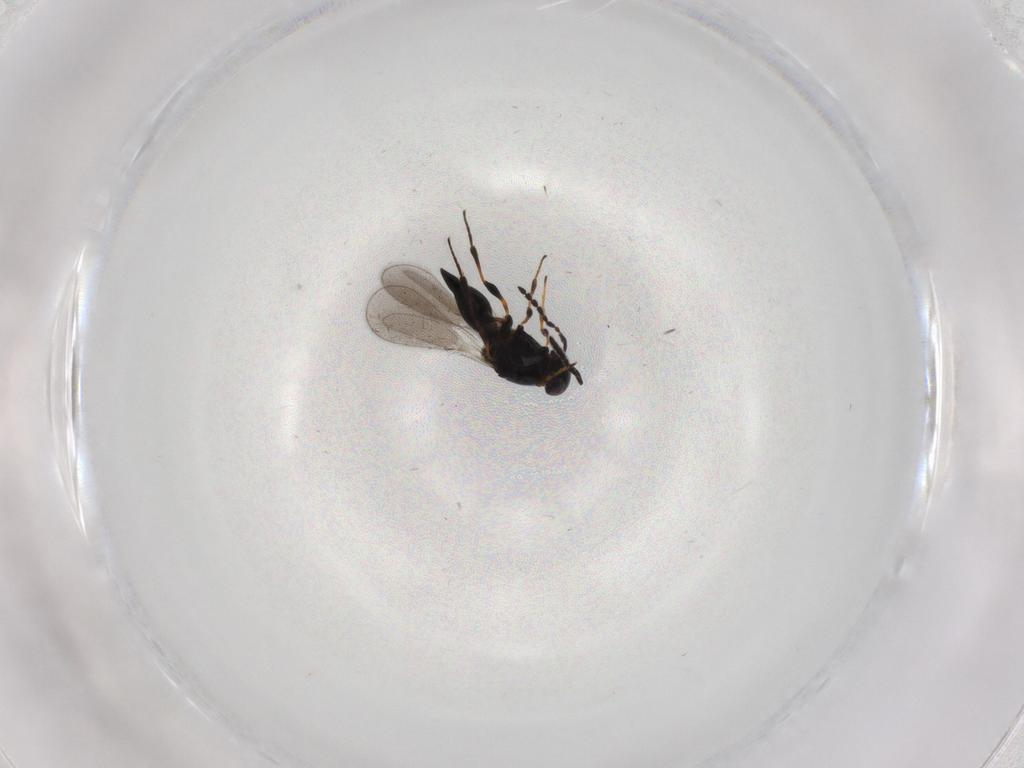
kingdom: Animalia
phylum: Arthropoda
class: Insecta
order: Hymenoptera
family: Platygastridae
